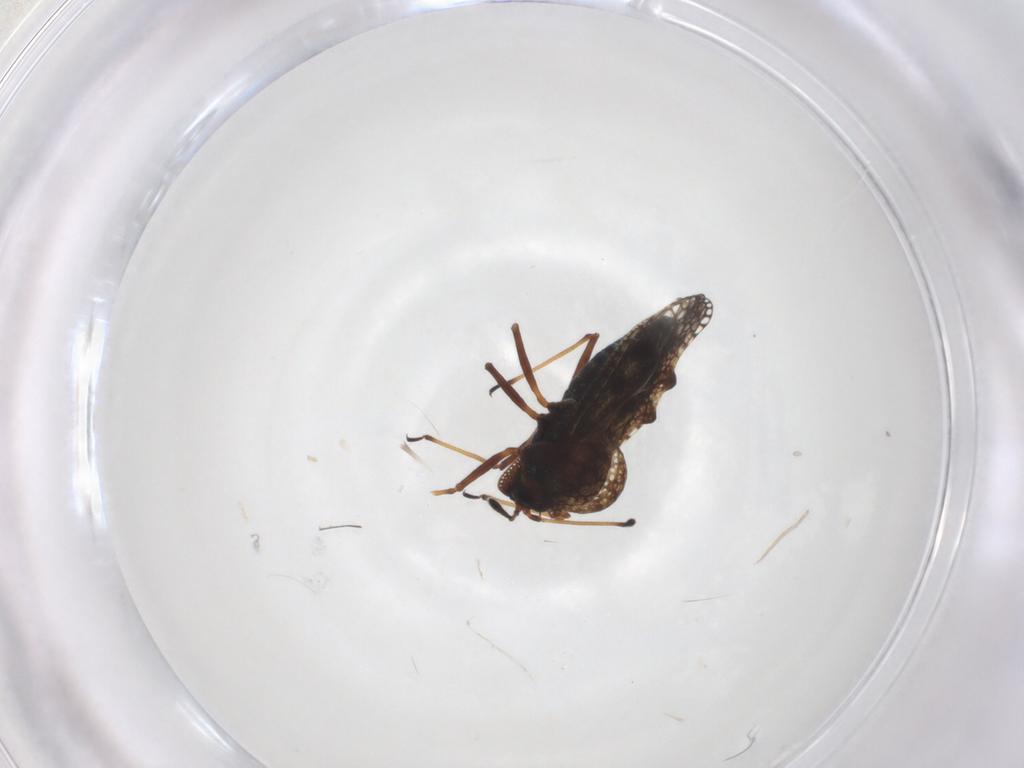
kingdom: Animalia
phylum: Arthropoda
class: Insecta
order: Hemiptera
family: Tingidae
